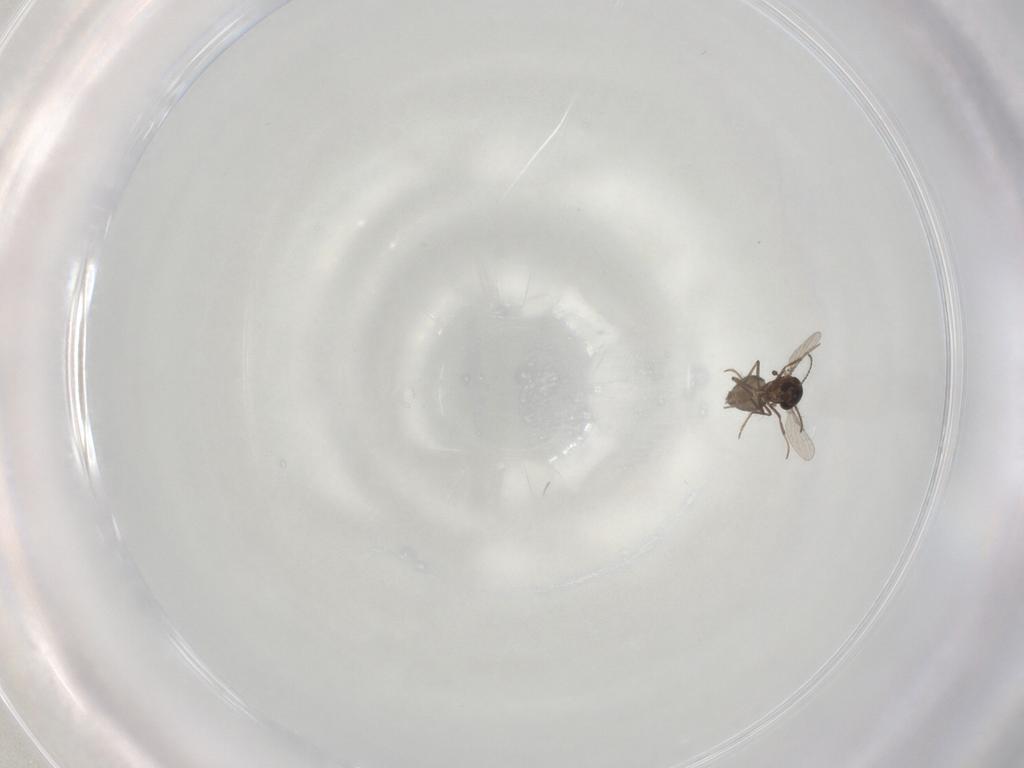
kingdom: Animalia
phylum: Arthropoda
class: Insecta
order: Diptera
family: Ceratopogonidae
